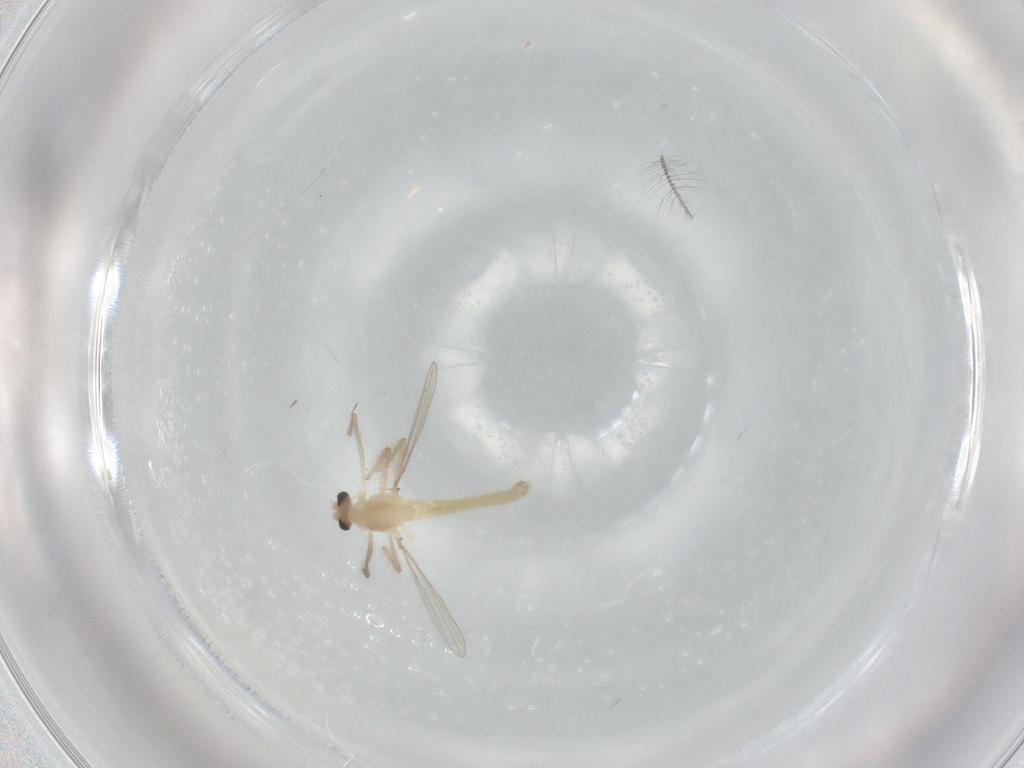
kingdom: Animalia
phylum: Arthropoda
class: Insecta
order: Diptera
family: Chironomidae
